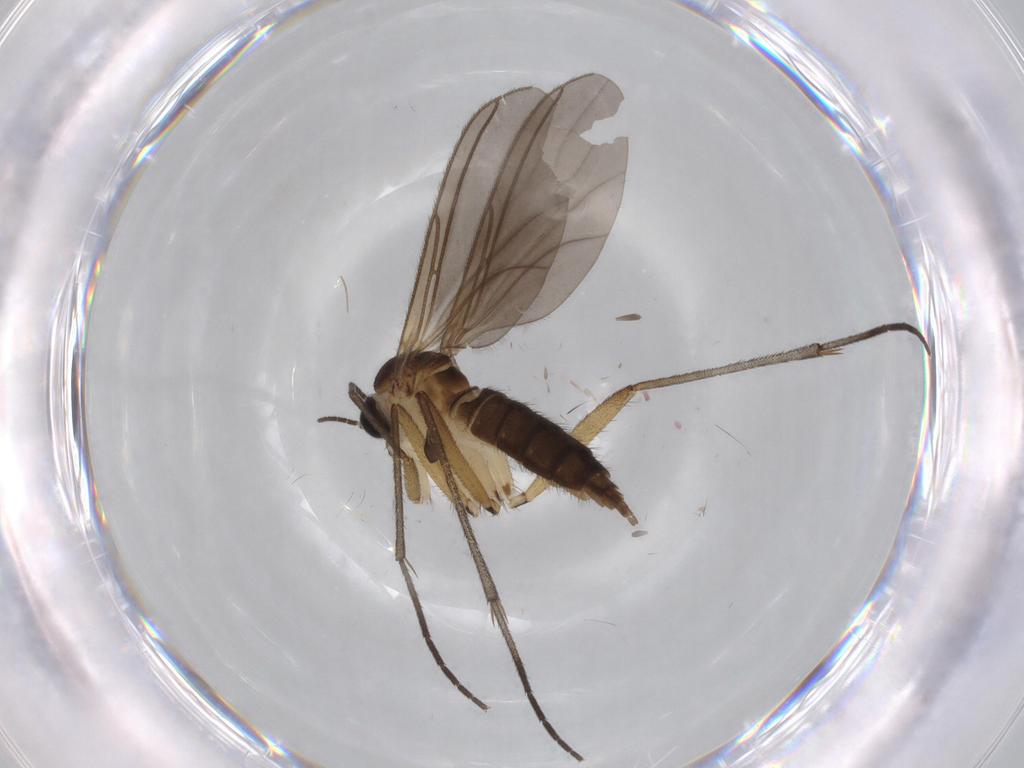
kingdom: Animalia
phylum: Arthropoda
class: Insecta
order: Diptera
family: Sciaridae
